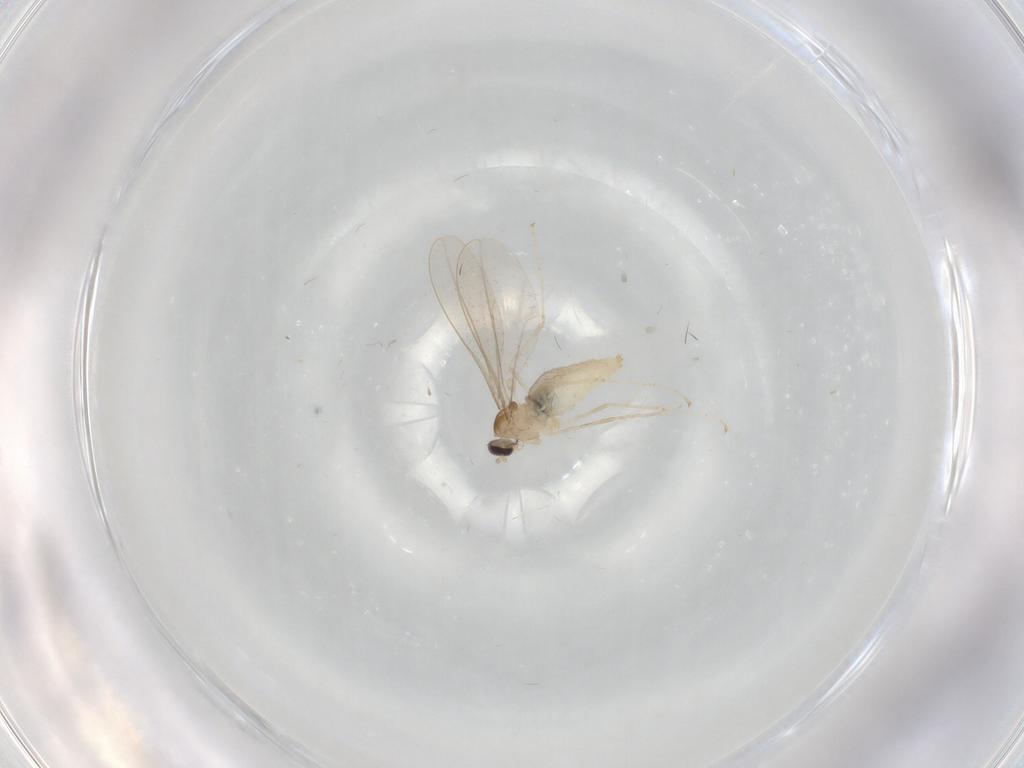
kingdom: Animalia
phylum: Arthropoda
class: Insecta
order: Diptera
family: Cecidomyiidae
